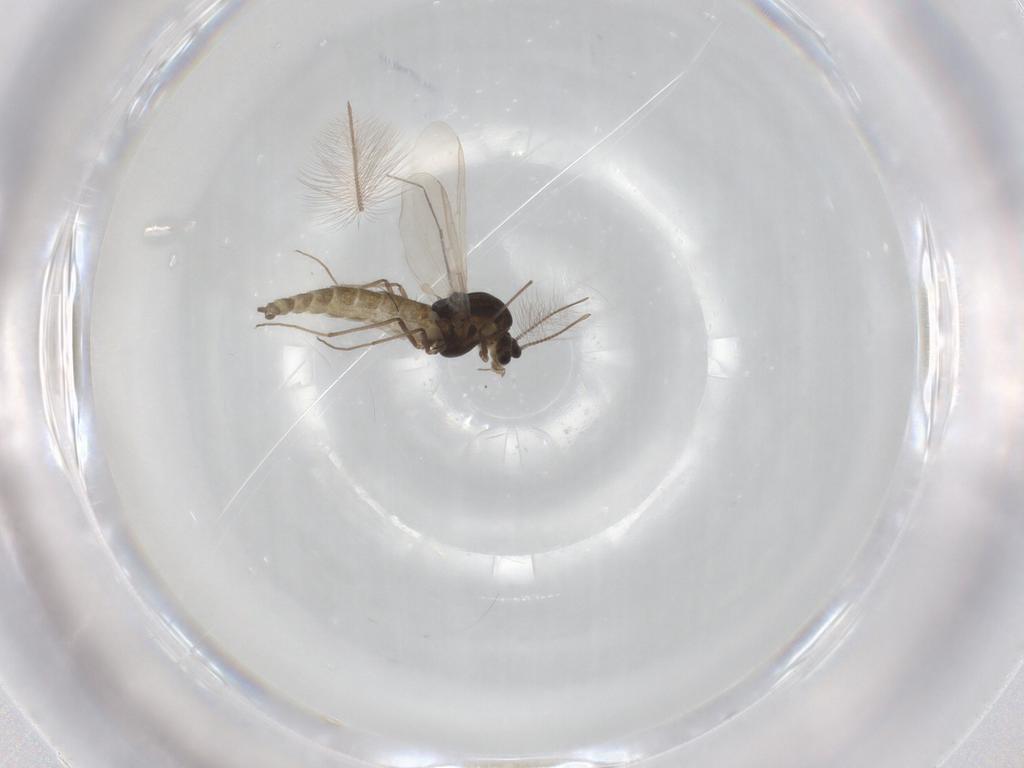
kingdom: Animalia
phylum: Arthropoda
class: Insecta
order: Diptera
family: Chironomidae
